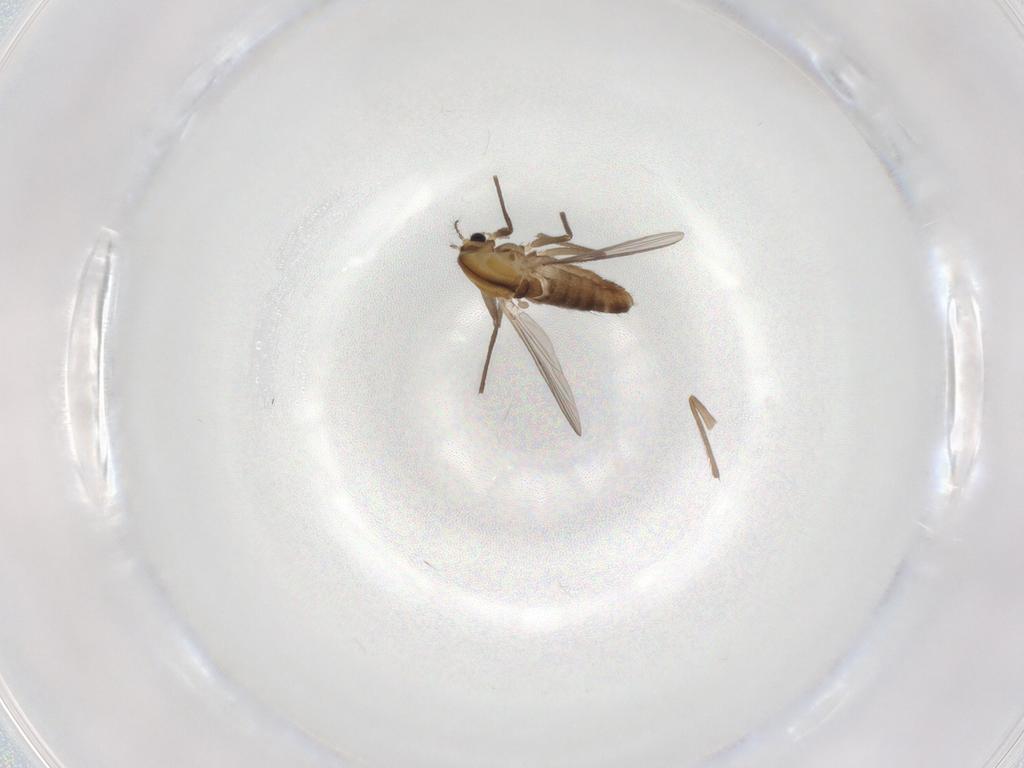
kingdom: Animalia
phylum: Arthropoda
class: Insecta
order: Diptera
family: Chironomidae
